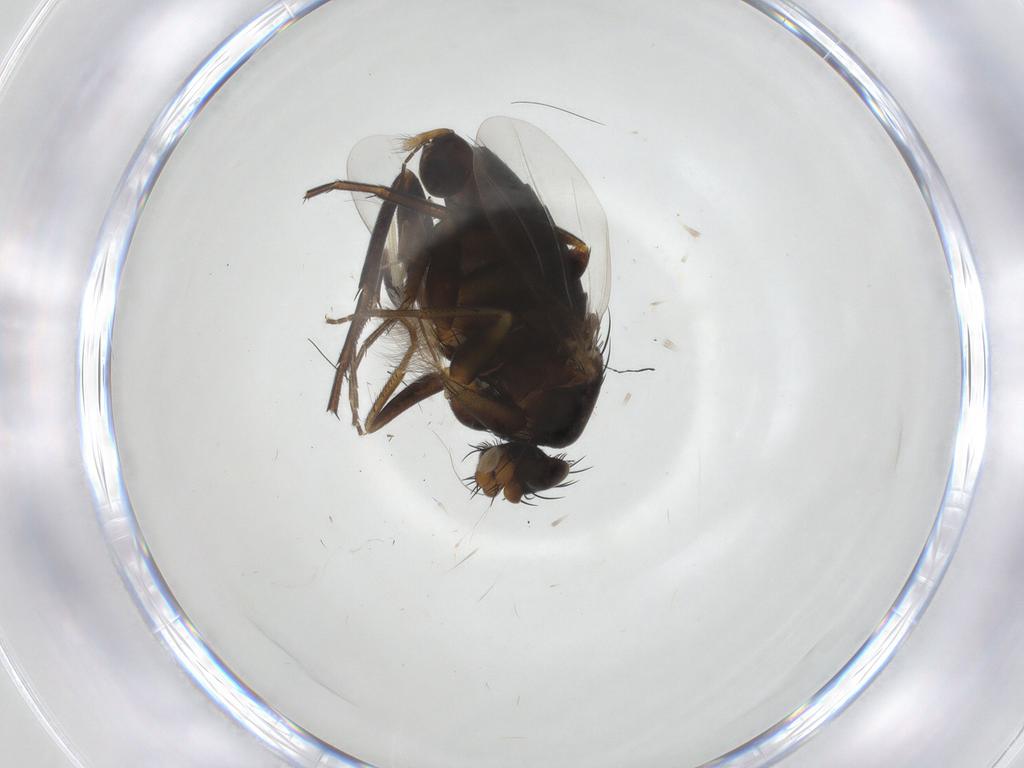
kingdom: Animalia
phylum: Arthropoda
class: Insecta
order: Diptera
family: Phoridae
